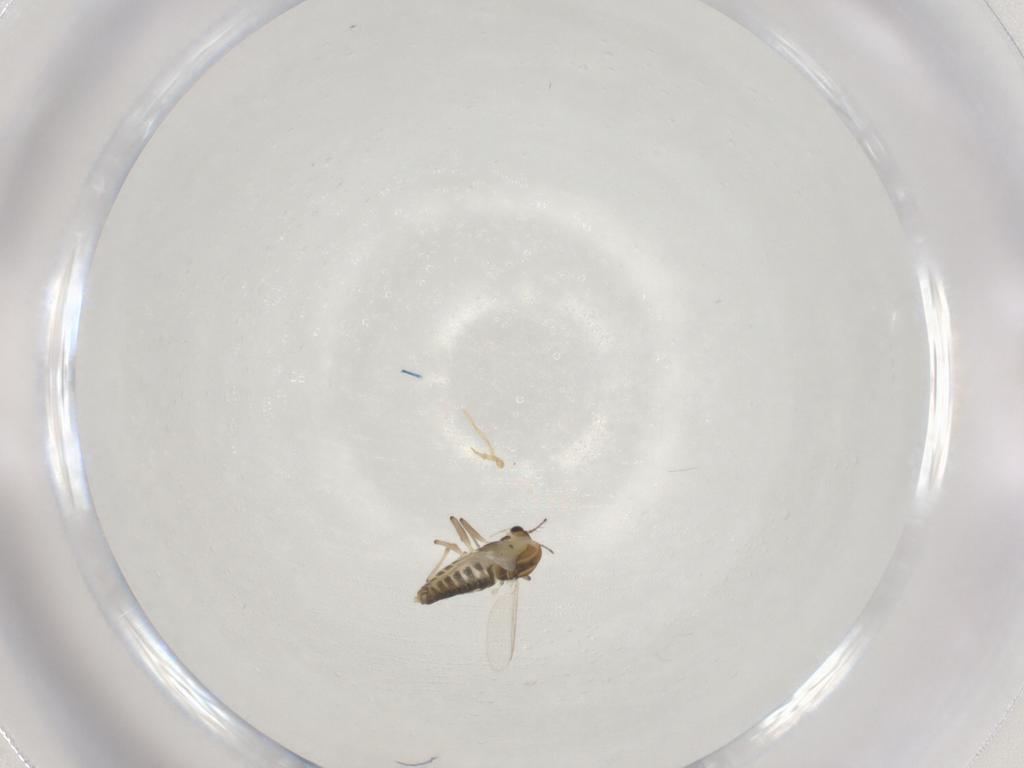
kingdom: Animalia
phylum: Arthropoda
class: Insecta
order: Diptera
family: Chironomidae
